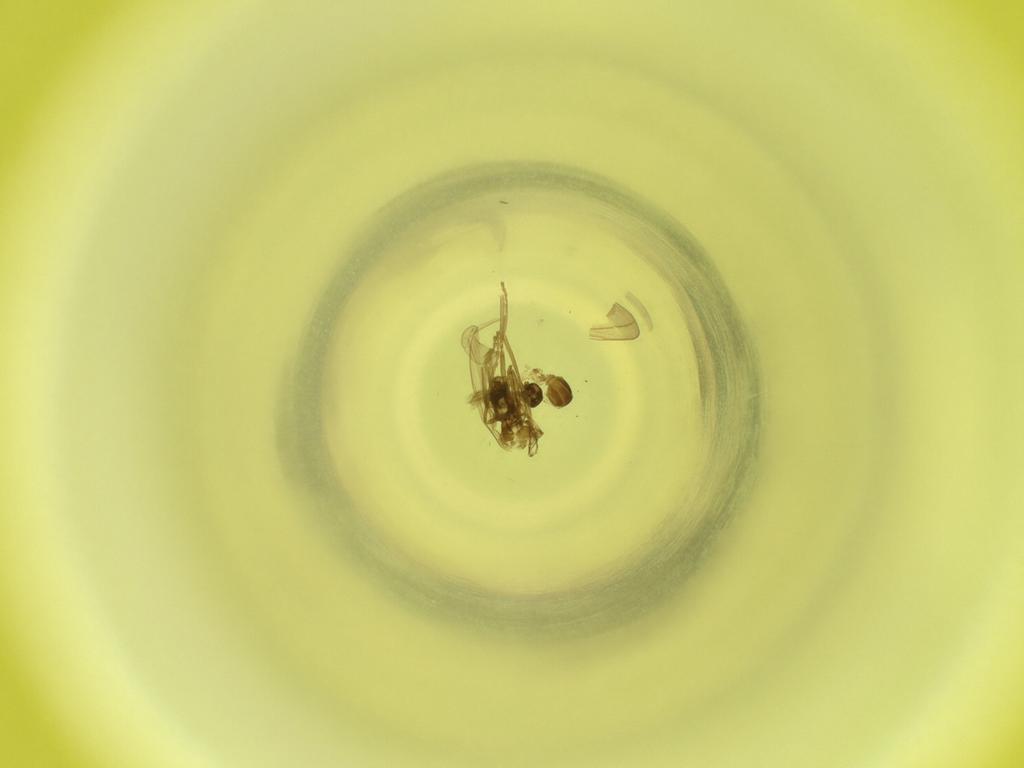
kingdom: Animalia
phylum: Arthropoda
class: Insecta
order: Diptera
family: Cecidomyiidae
